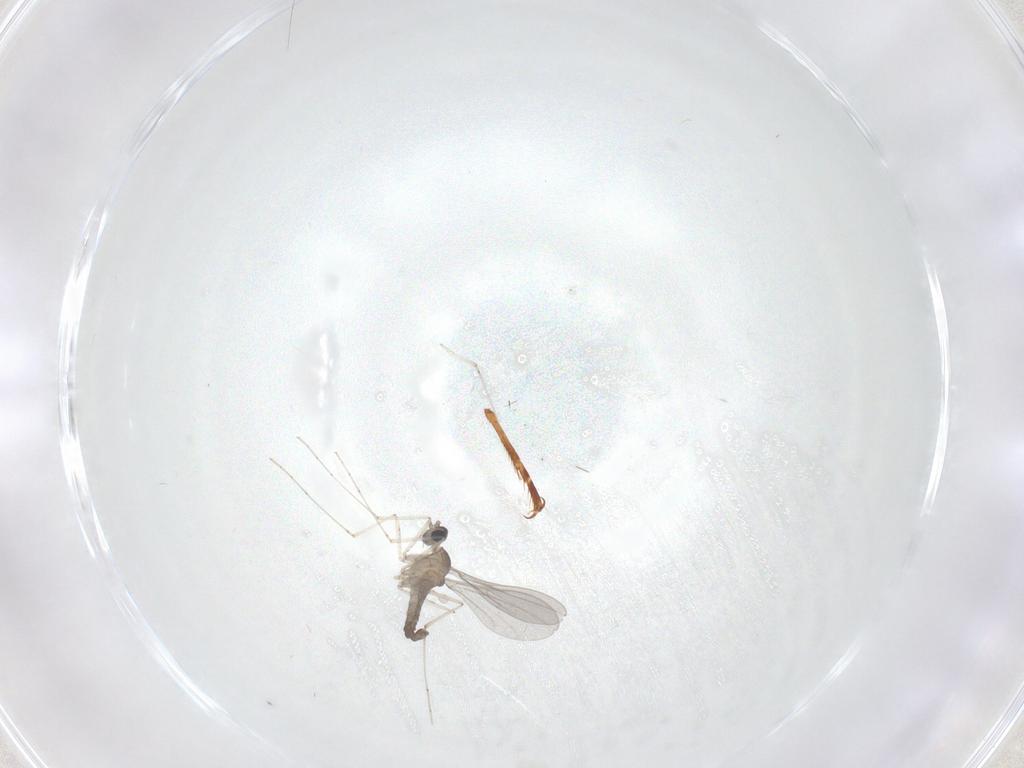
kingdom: Animalia
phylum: Arthropoda
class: Insecta
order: Diptera
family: Cecidomyiidae
